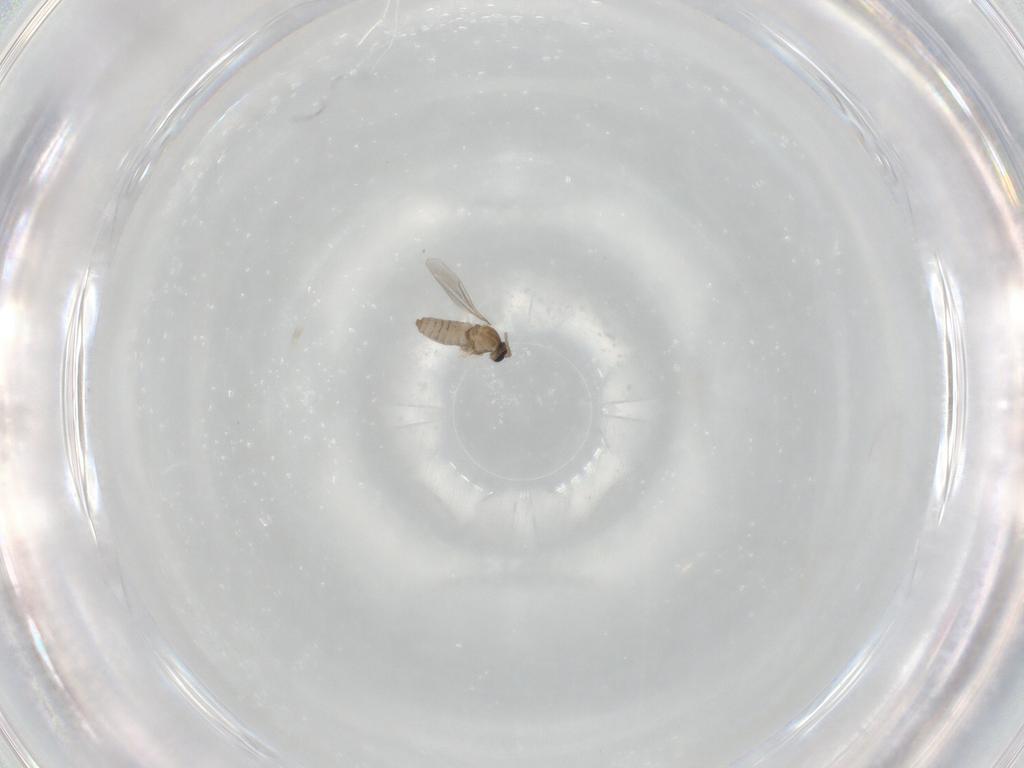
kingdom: Animalia
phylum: Arthropoda
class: Insecta
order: Diptera
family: Cecidomyiidae
